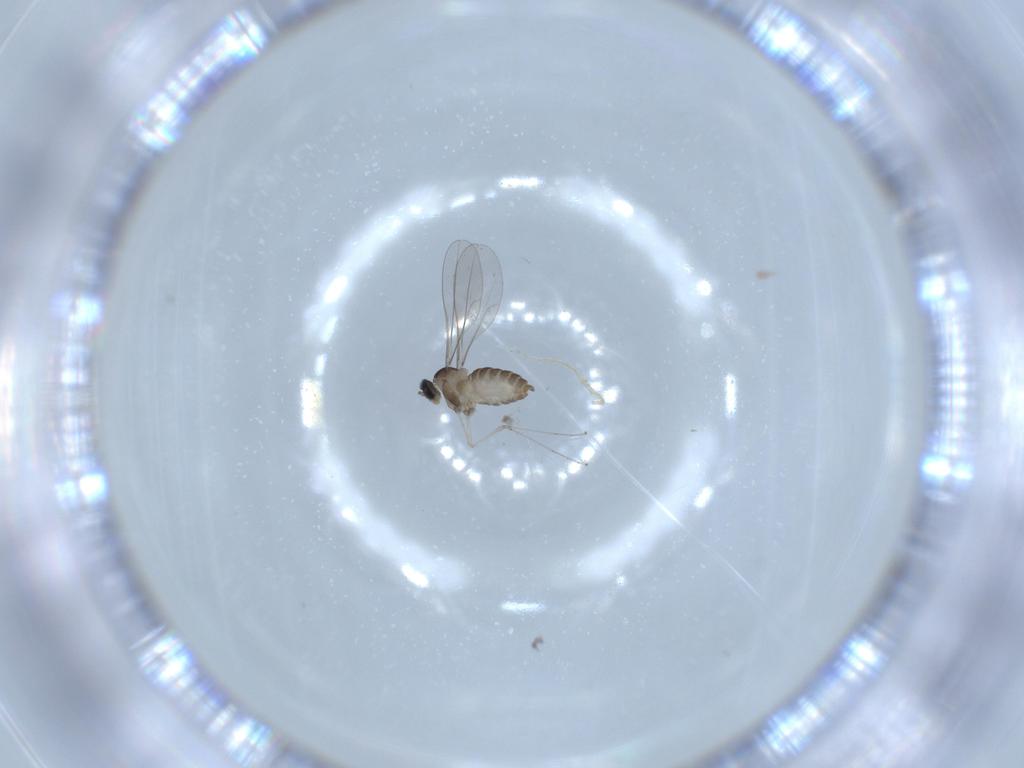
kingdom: Animalia
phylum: Arthropoda
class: Insecta
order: Diptera
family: Cecidomyiidae
